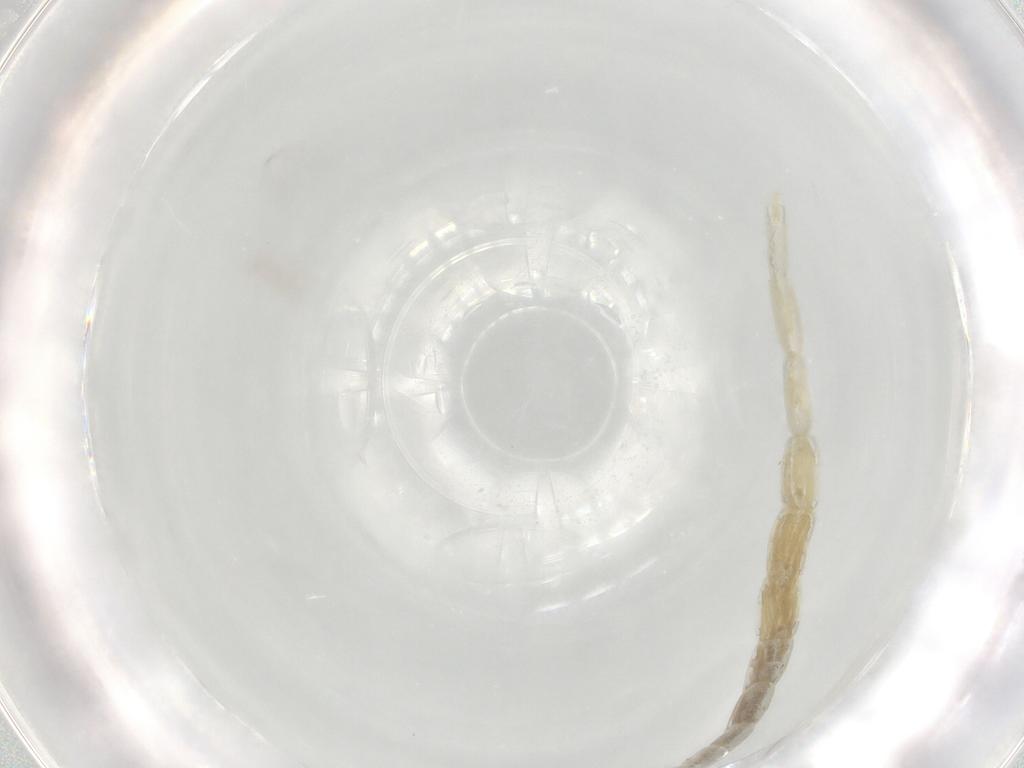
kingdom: Animalia
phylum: Arthropoda
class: Insecta
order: Diptera
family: Ceratopogonidae
